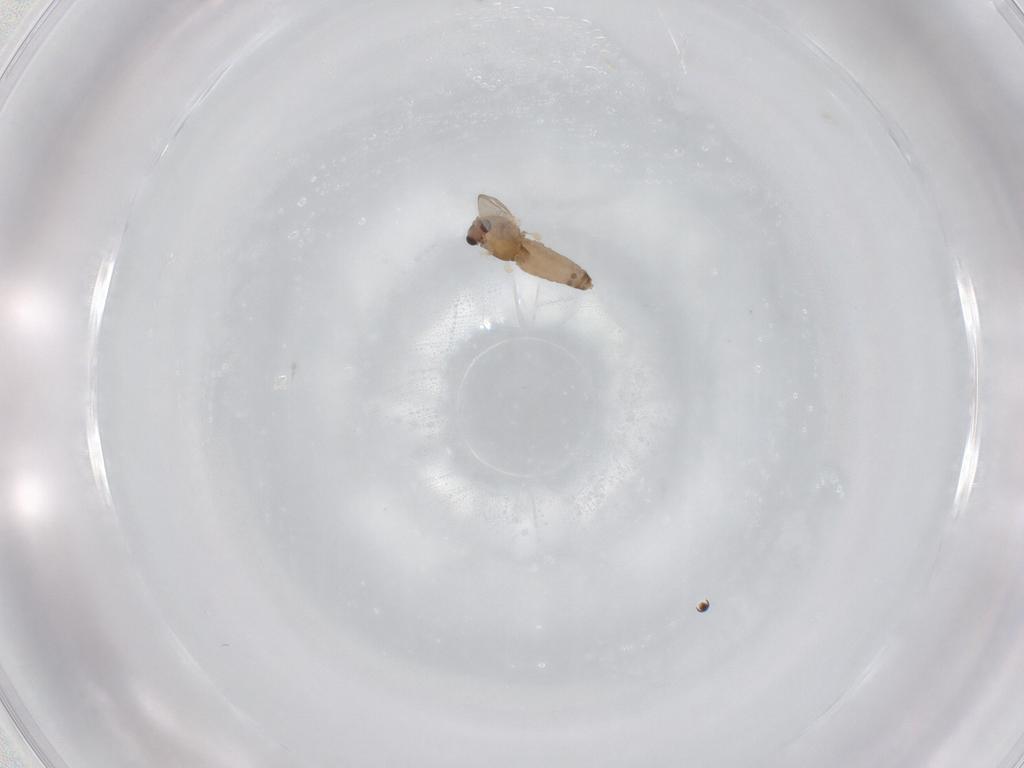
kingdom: Animalia
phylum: Arthropoda
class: Insecta
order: Diptera
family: Chironomidae
